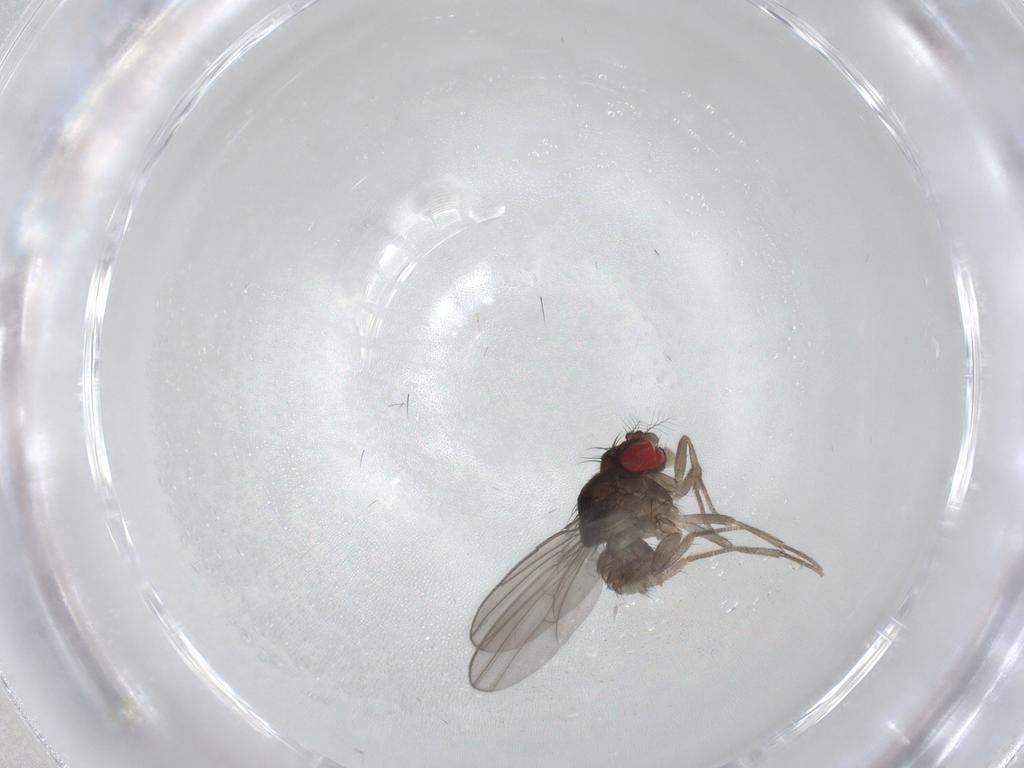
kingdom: Animalia
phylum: Arthropoda
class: Insecta
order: Diptera
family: Drosophilidae
